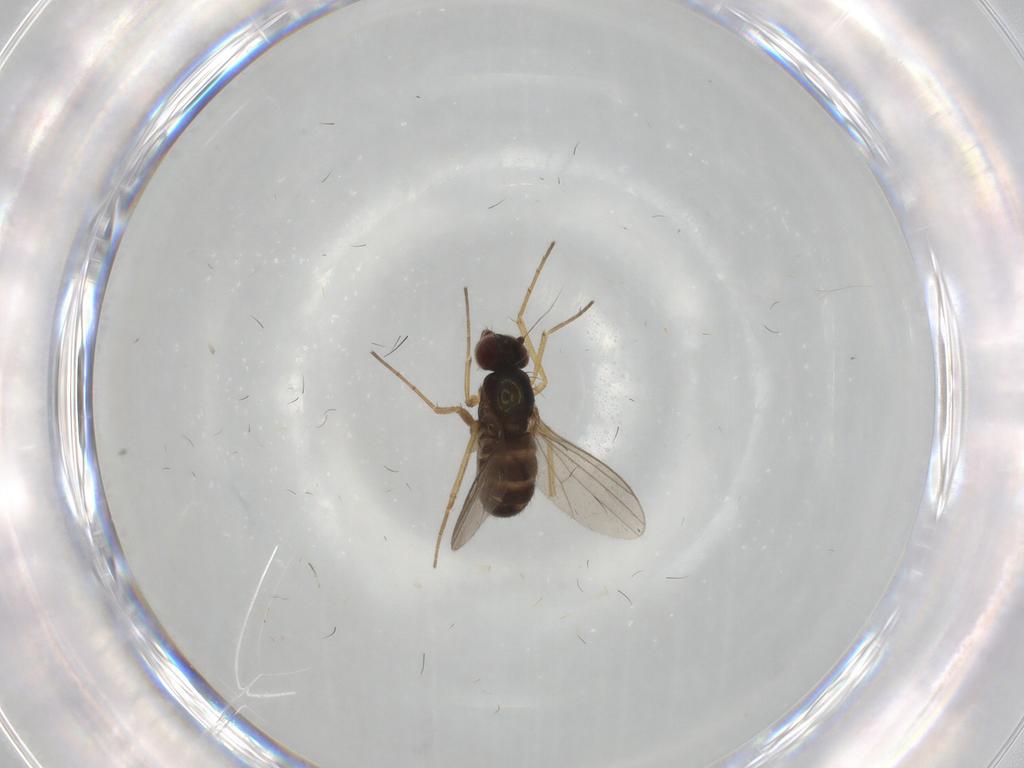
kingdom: Animalia
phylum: Arthropoda
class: Insecta
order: Diptera
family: Dolichopodidae
